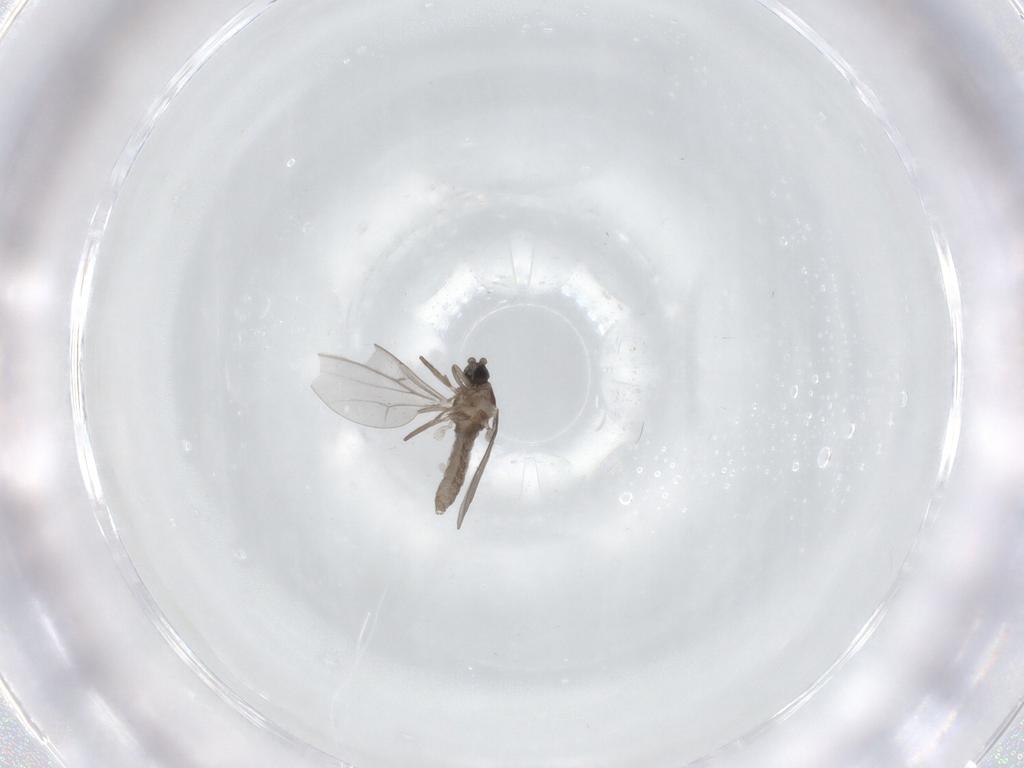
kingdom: Animalia
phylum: Arthropoda
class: Insecta
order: Diptera
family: Cecidomyiidae
